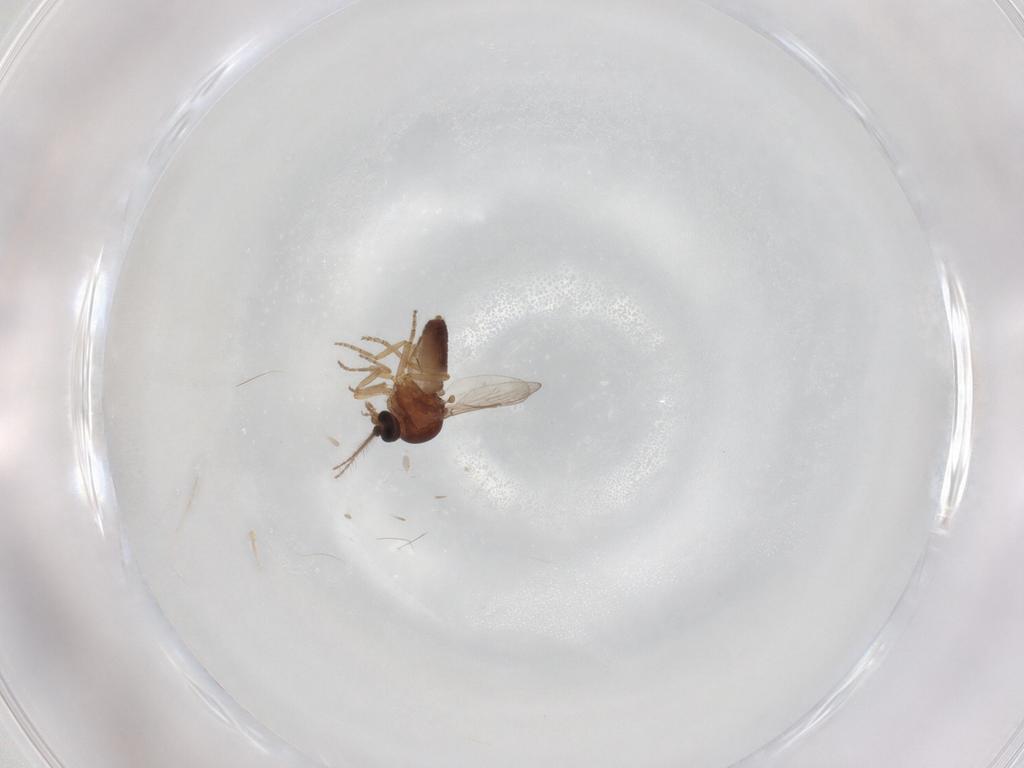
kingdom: Animalia
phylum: Arthropoda
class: Insecta
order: Diptera
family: Ceratopogonidae
